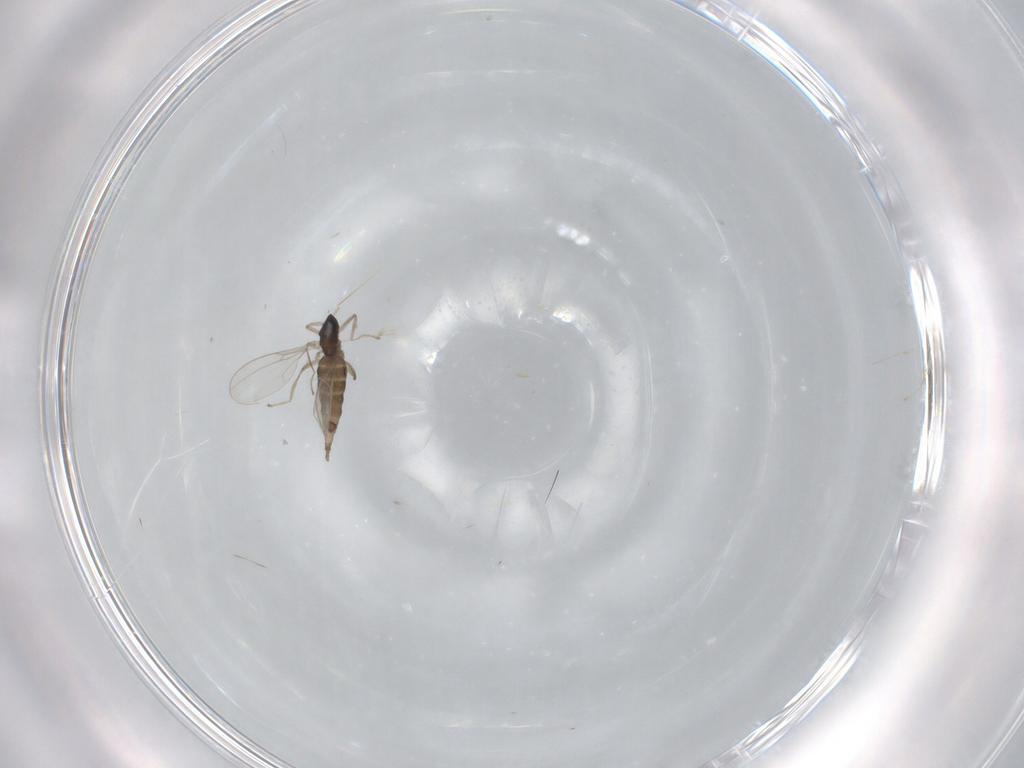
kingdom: Animalia
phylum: Arthropoda
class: Insecta
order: Diptera
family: Cecidomyiidae
